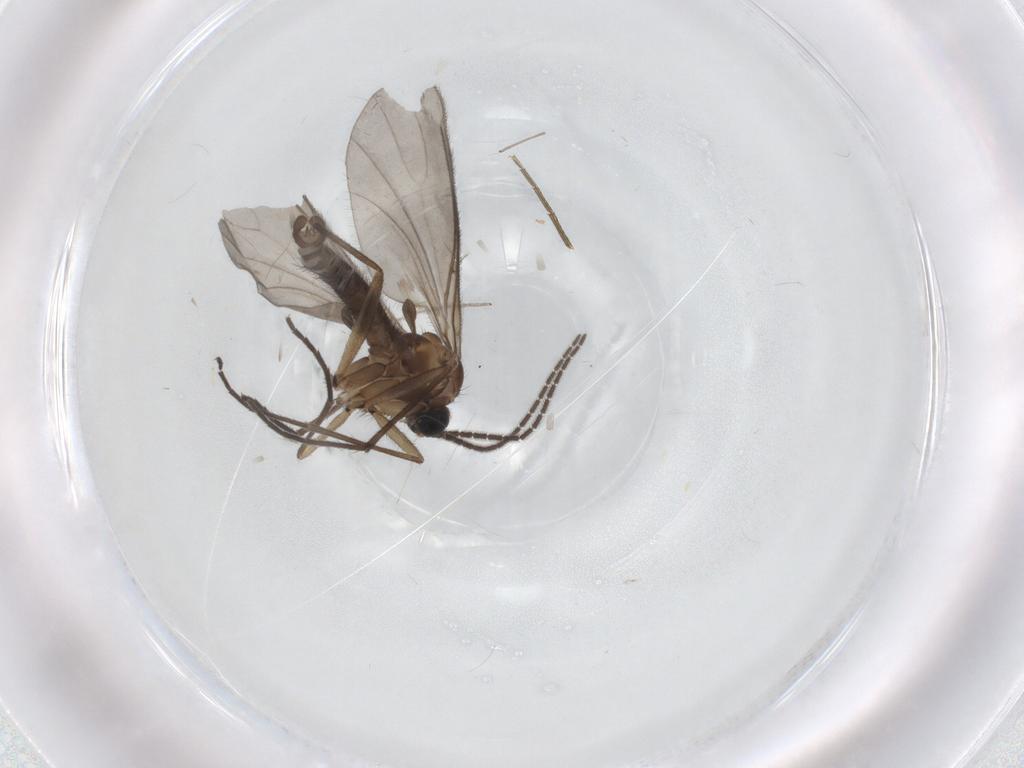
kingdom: Animalia
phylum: Arthropoda
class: Insecta
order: Diptera
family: Sciaridae
